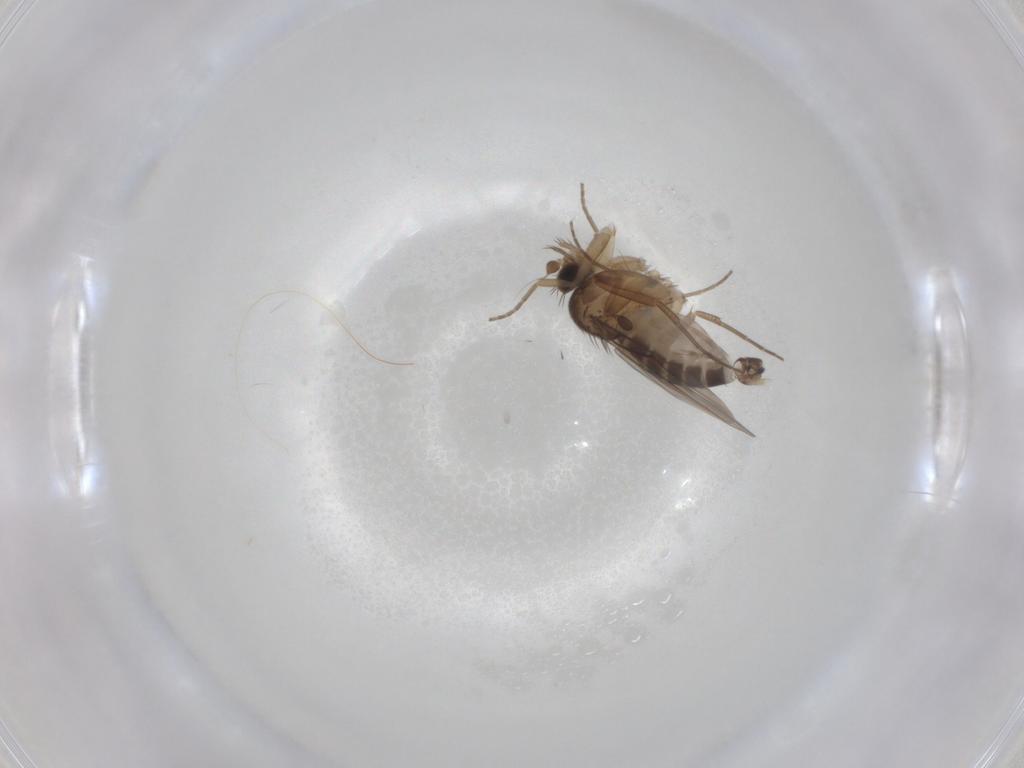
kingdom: Animalia
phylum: Arthropoda
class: Insecta
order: Diptera
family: Phoridae
